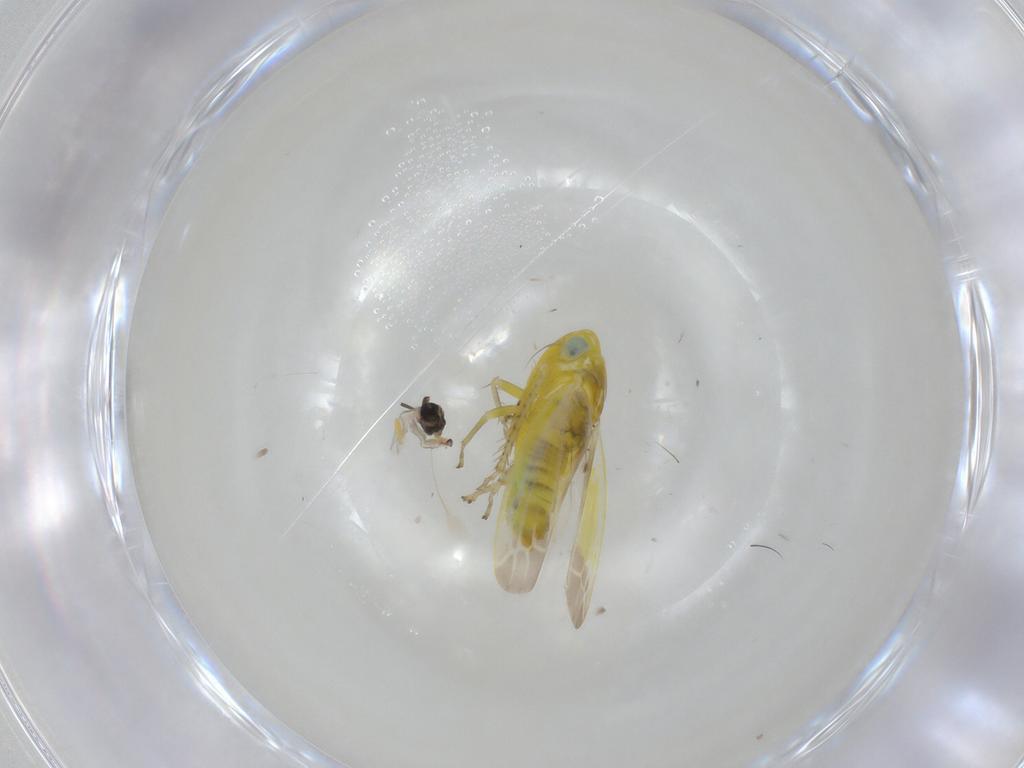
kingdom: Animalia
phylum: Arthropoda
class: Insecta
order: Hemiptera
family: Cicadellidae
